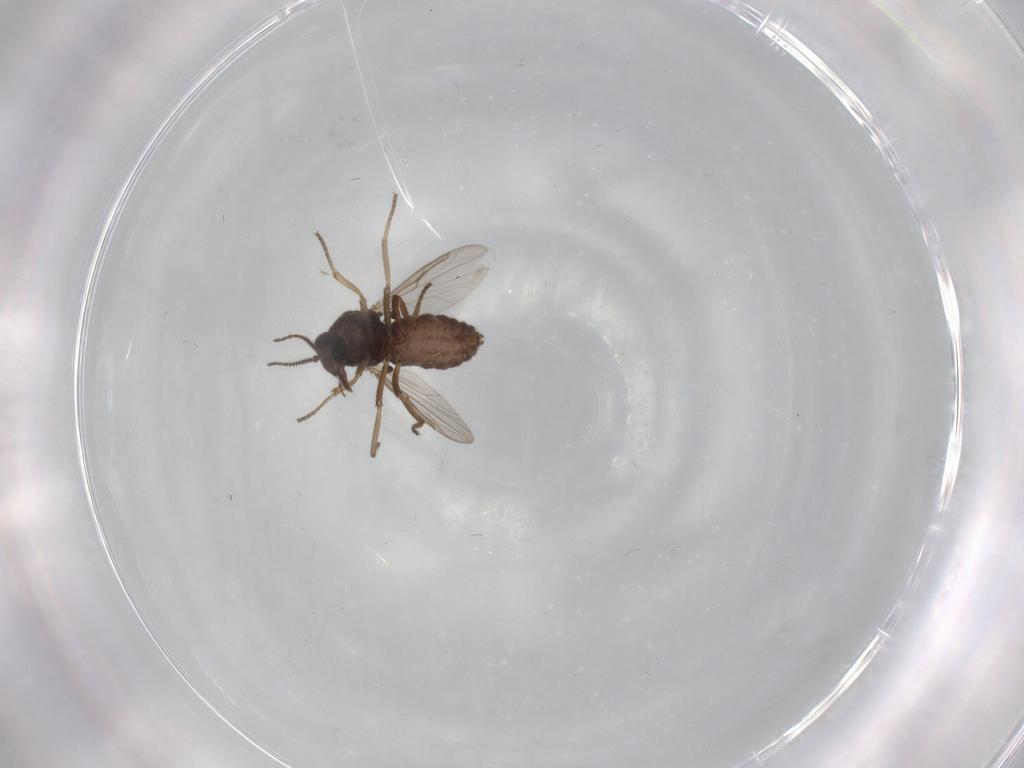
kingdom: Animalia
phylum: Arthropoda
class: Insecta
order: Diptera
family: Ceratopogonidae
